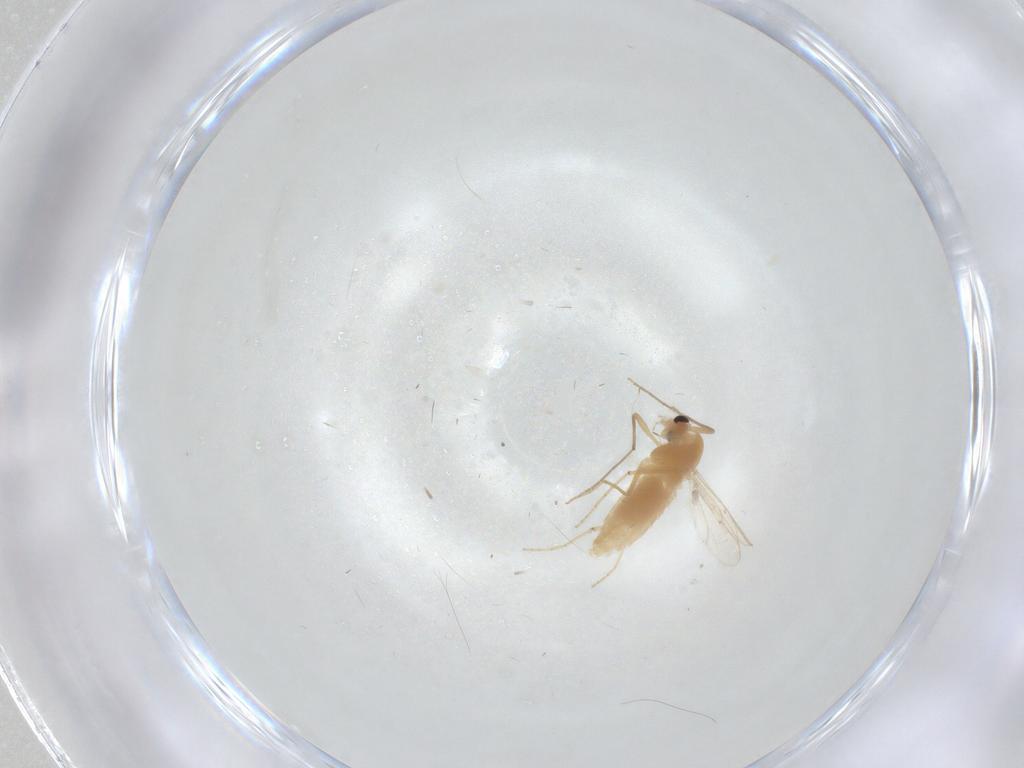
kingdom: Animalia
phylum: Arthropoda
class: Insecta
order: Diptera
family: Chironomidae
